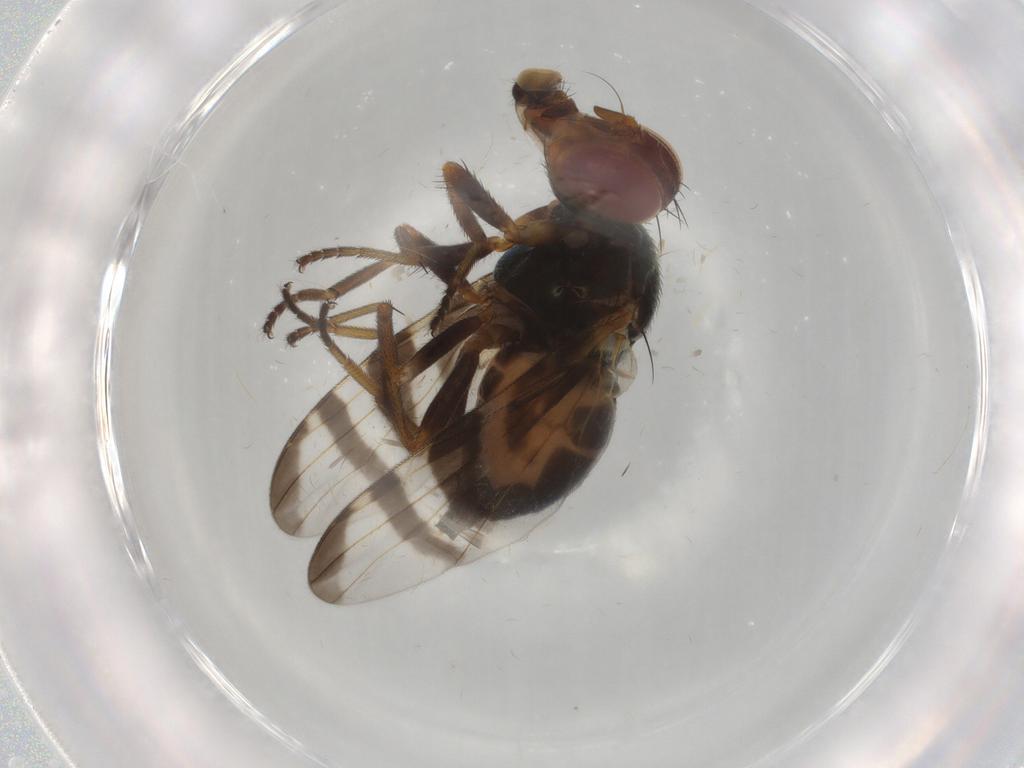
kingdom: Animalia
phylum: Arthropoda
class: Insecta
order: Diptera
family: Platystomatidae
